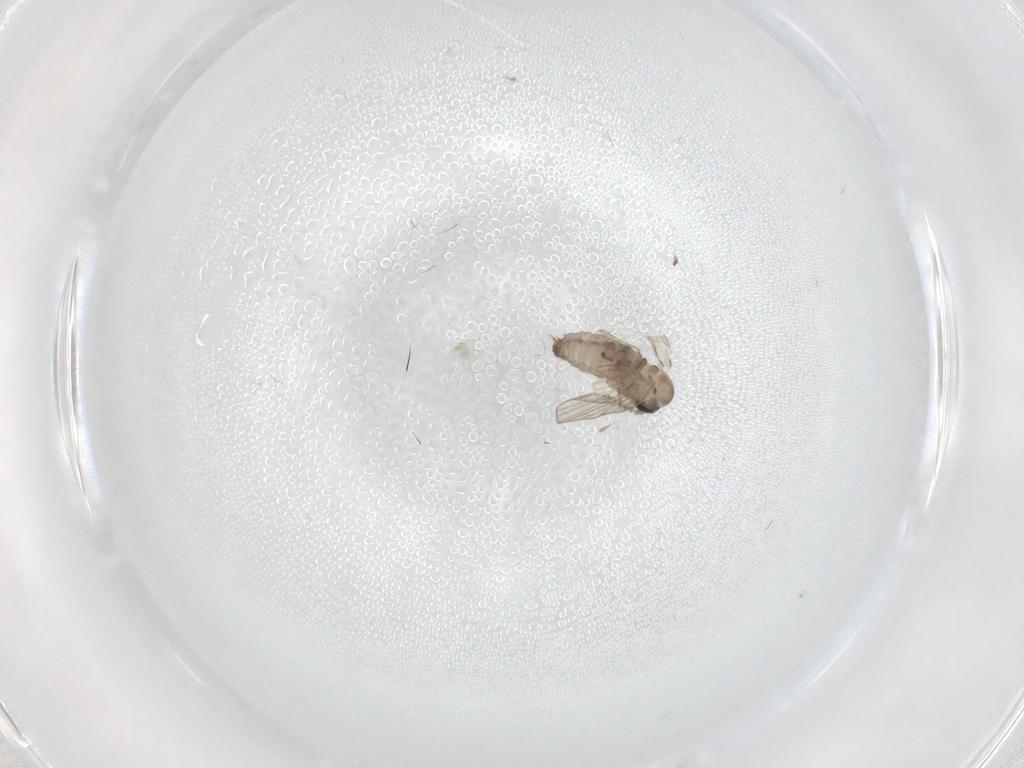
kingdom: Animalia
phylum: Arthropoda
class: Insecta
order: Diptera
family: Psychodidae
